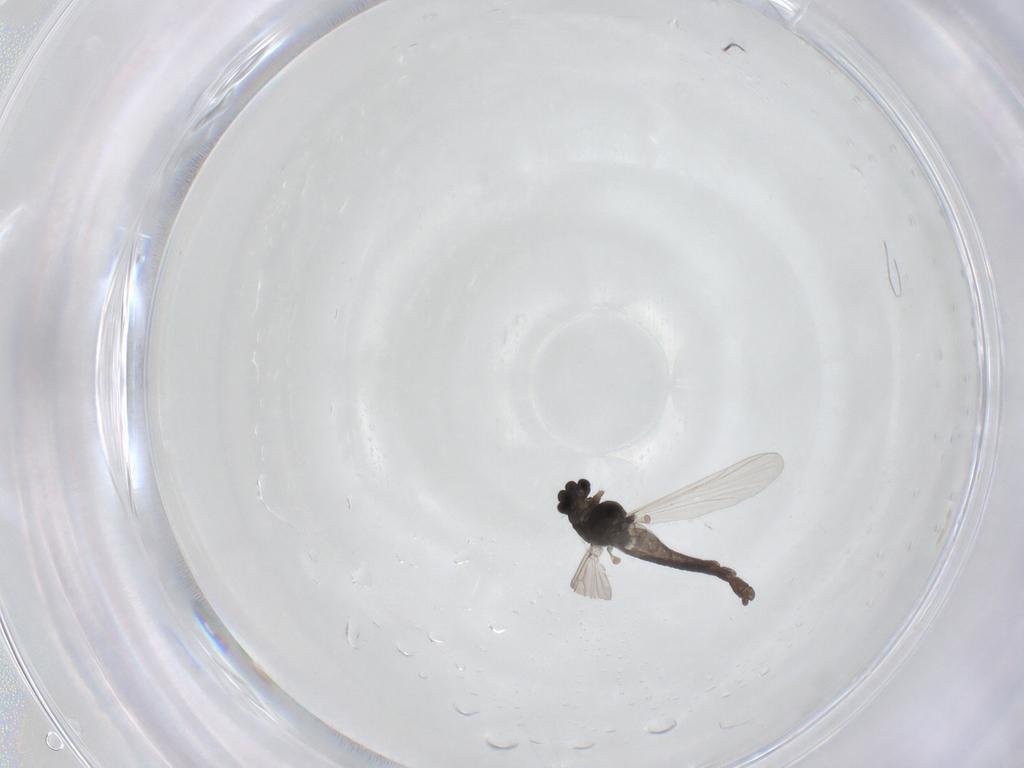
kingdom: Animalia
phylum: Arthropoda
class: Insecta
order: Diptera
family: Chironomidae
